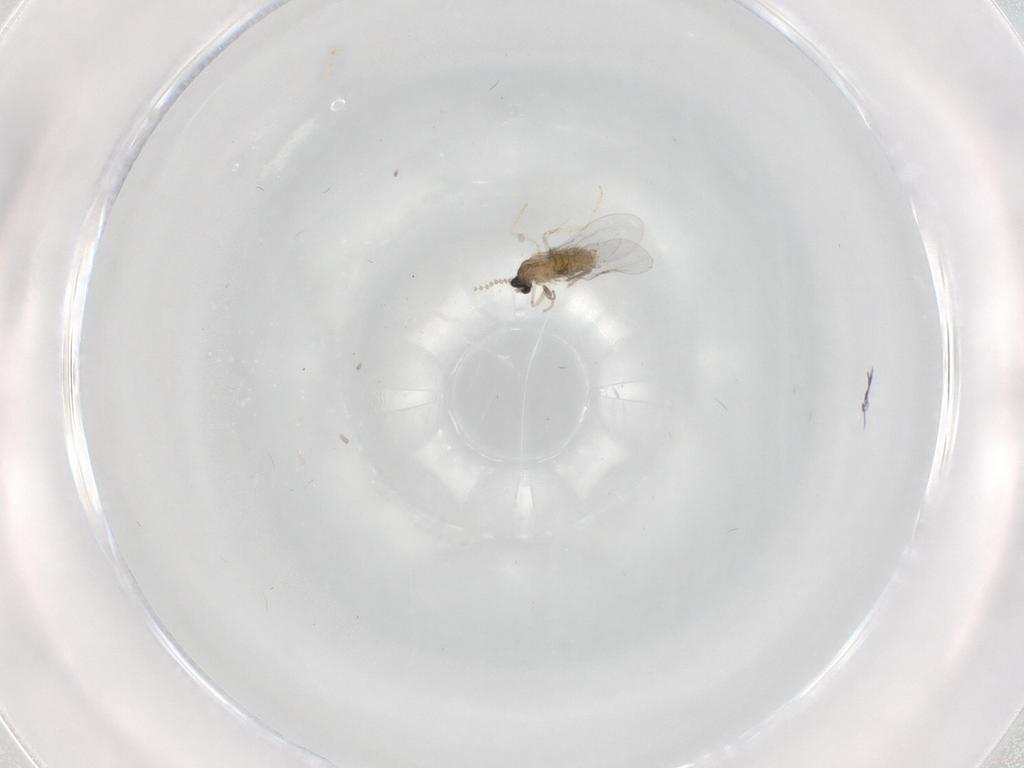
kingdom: Animalia
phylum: Arthropoda
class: Insecta
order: Diptera
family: Cecidomyiidae
